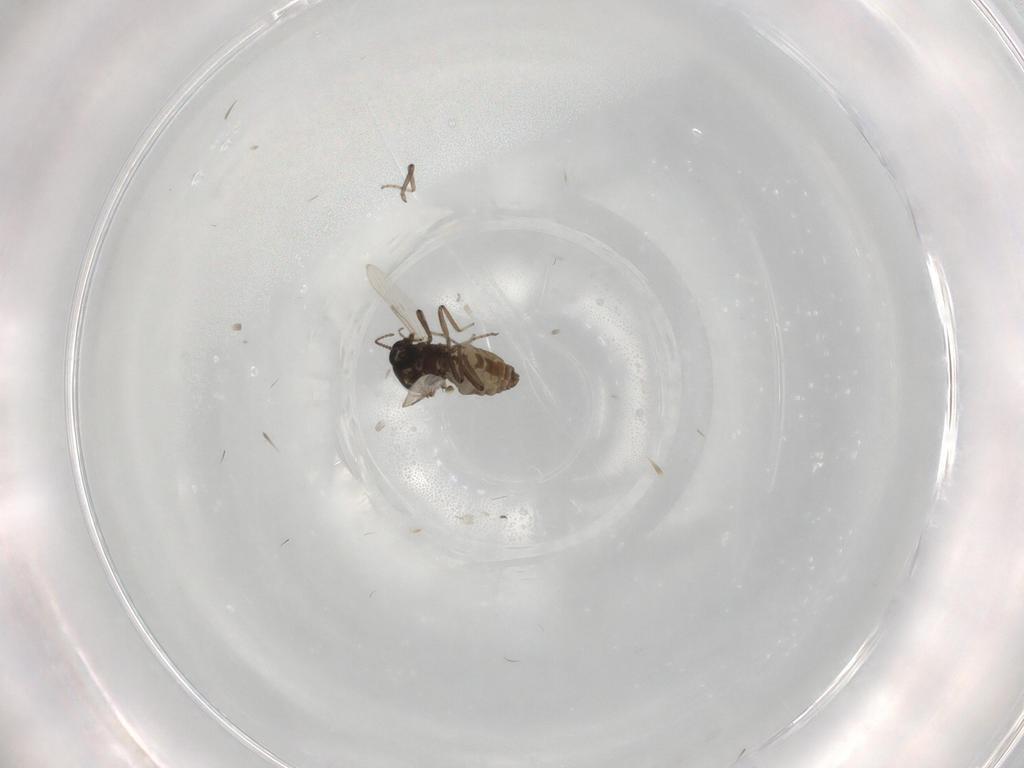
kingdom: Animalia
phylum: Arthropoda
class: Insecta
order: Diptera
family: Ceratopogonidae
